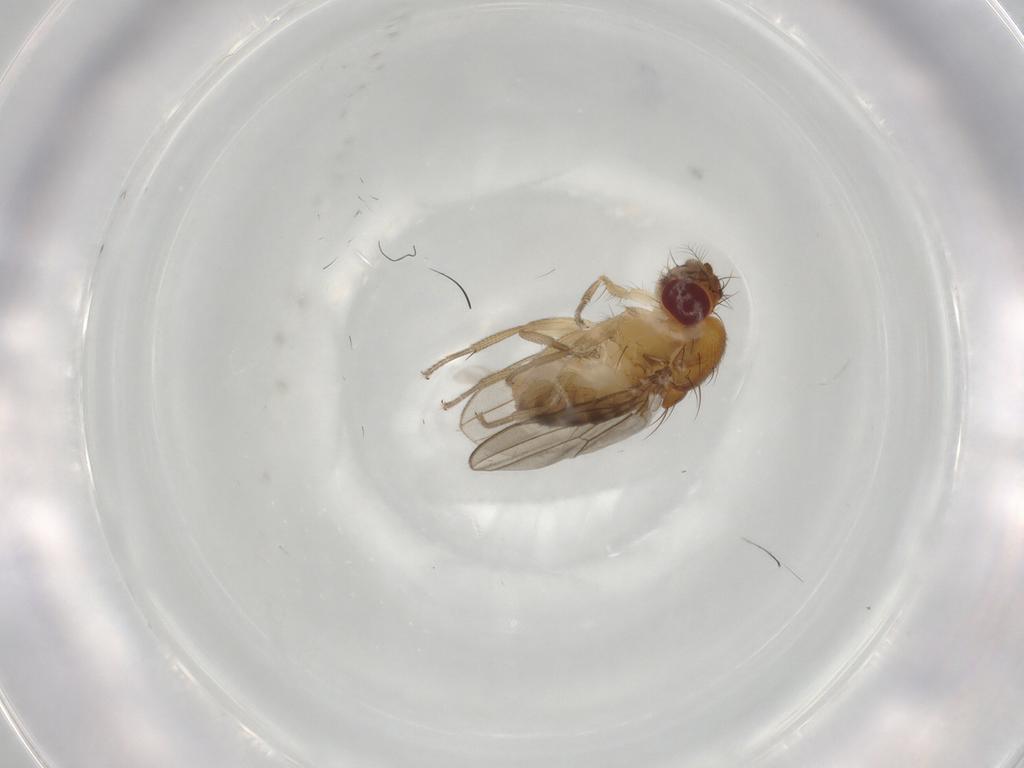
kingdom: Animalia
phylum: Arthropoda
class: Insecta
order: Diptera
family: Drosophilidae
